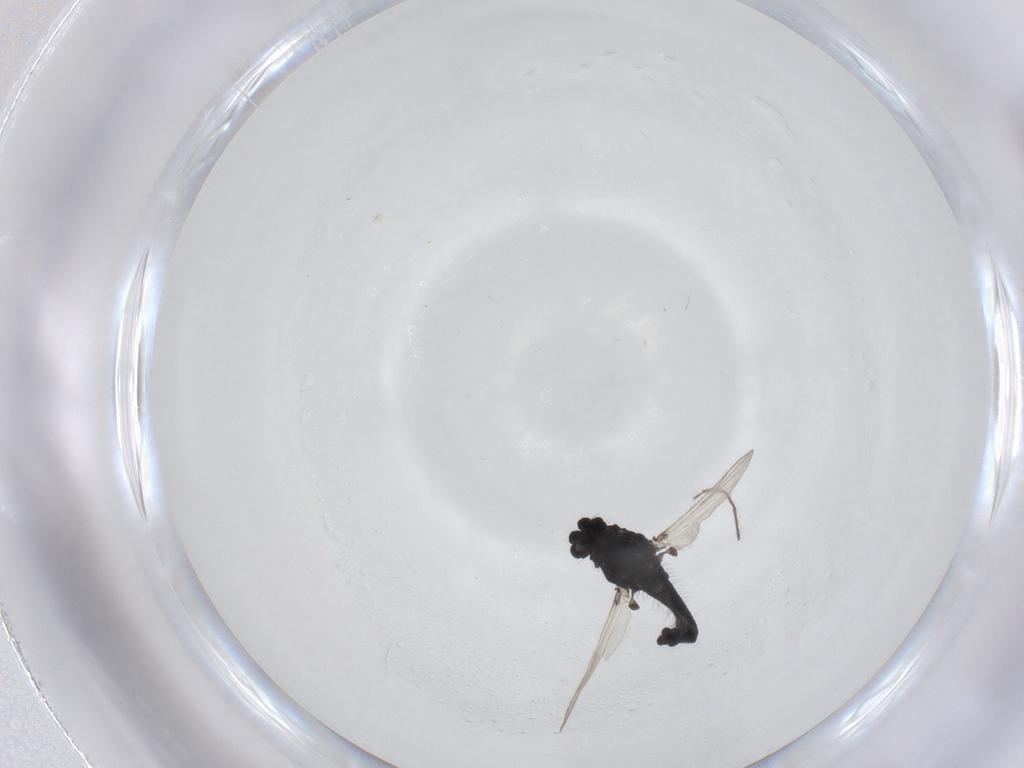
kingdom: Animalia
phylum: Arthropoda
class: Insecta
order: Diptera
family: Chironomidae
